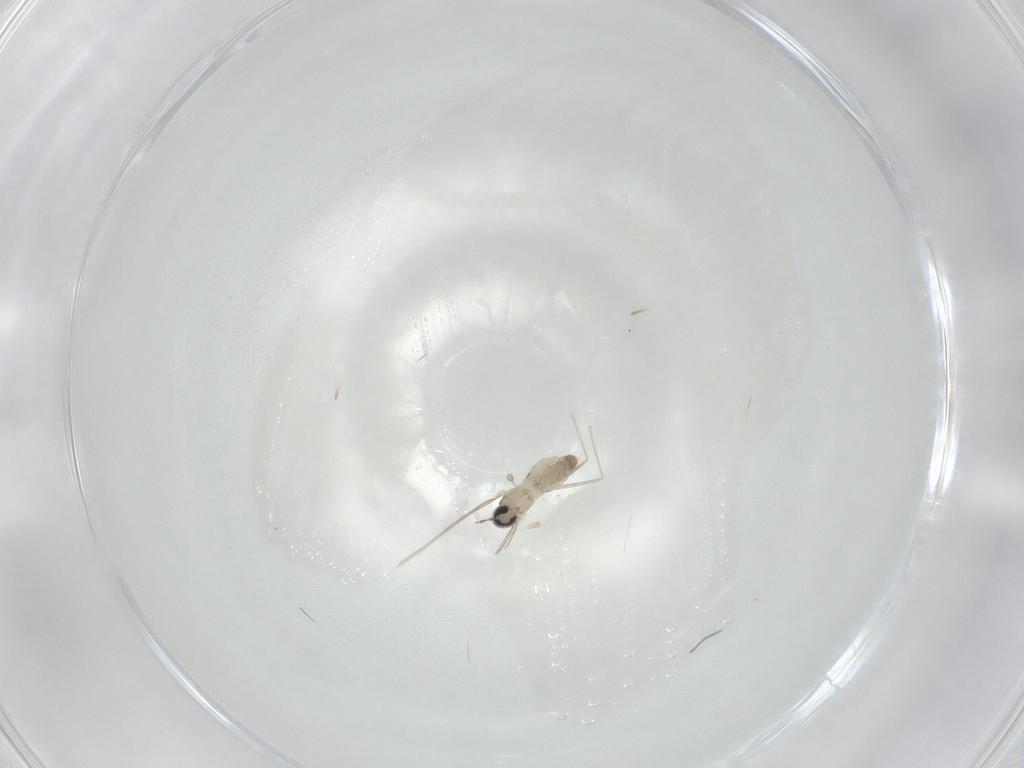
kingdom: Animalia
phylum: Arthropoda
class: Insecta
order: Diptera
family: Cecidomyiidae
